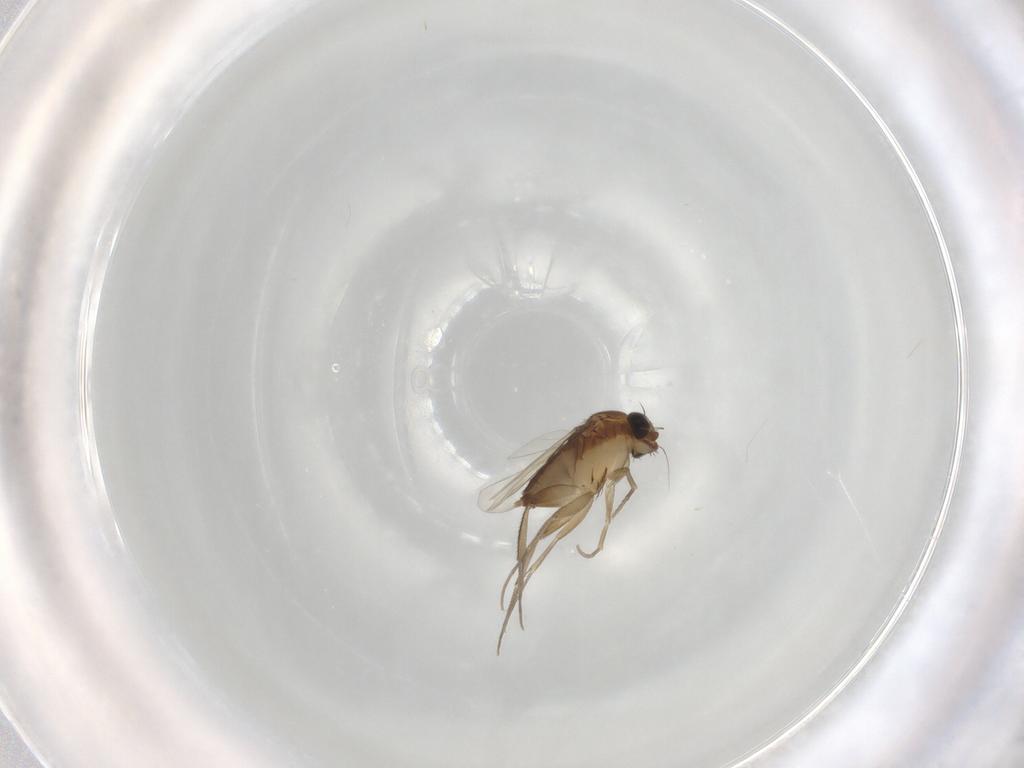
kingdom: Animalia
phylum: Arthropoda
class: Insecta
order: Diptera
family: Phoridae
